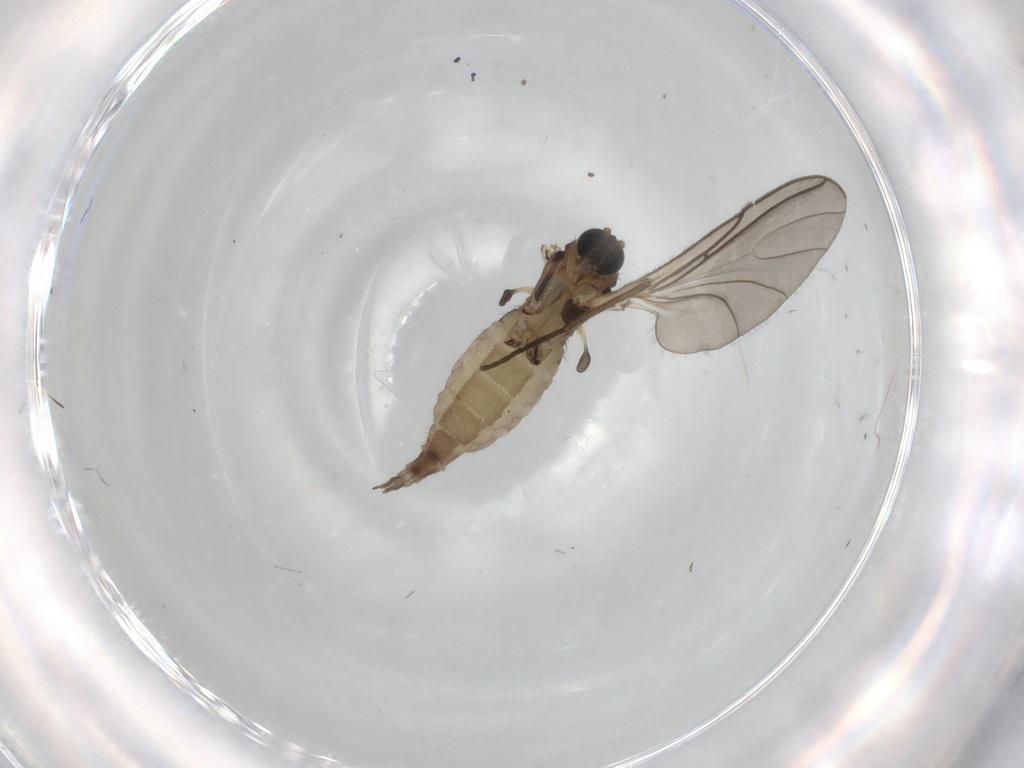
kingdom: Animalia
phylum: Arthropoda
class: Insecta
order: Diptera
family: Sciaridae
